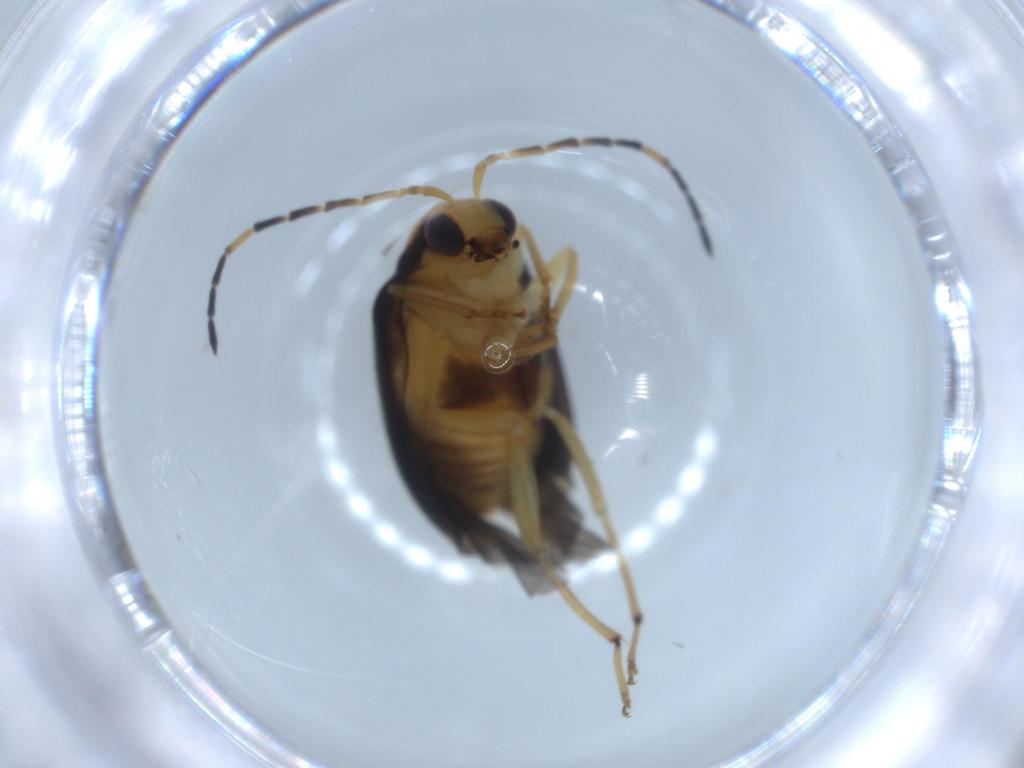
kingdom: Animalia
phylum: Arthropoda
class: Insecta
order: Coleoptera
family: Chrysomelidae
